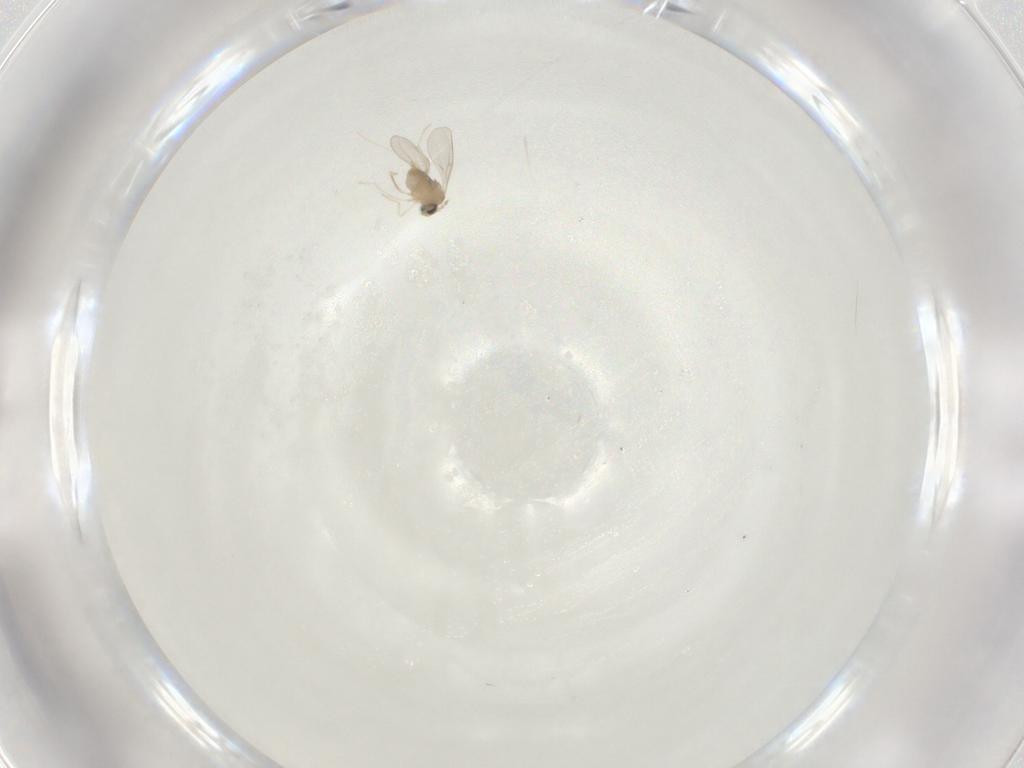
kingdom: Animalia
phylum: Arthropoda
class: Insecta
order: Diptera
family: Cecidomyiidae
